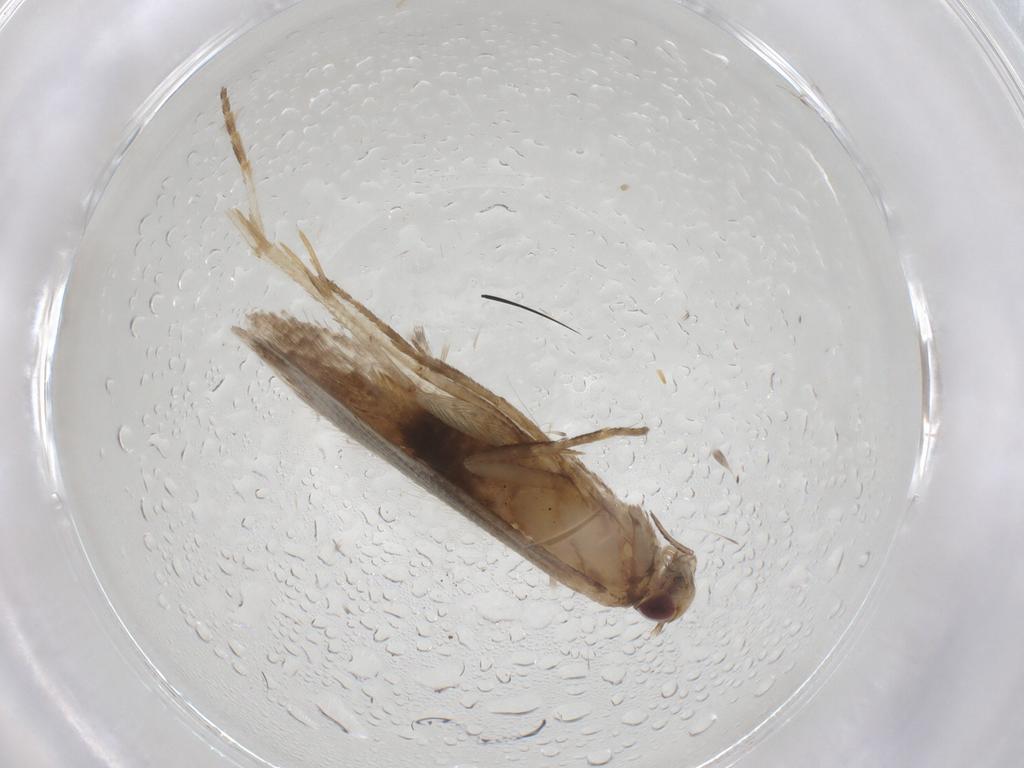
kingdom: Animalia
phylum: Arthropoda
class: Insecta
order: Lepidoptera
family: Gelechiidae
